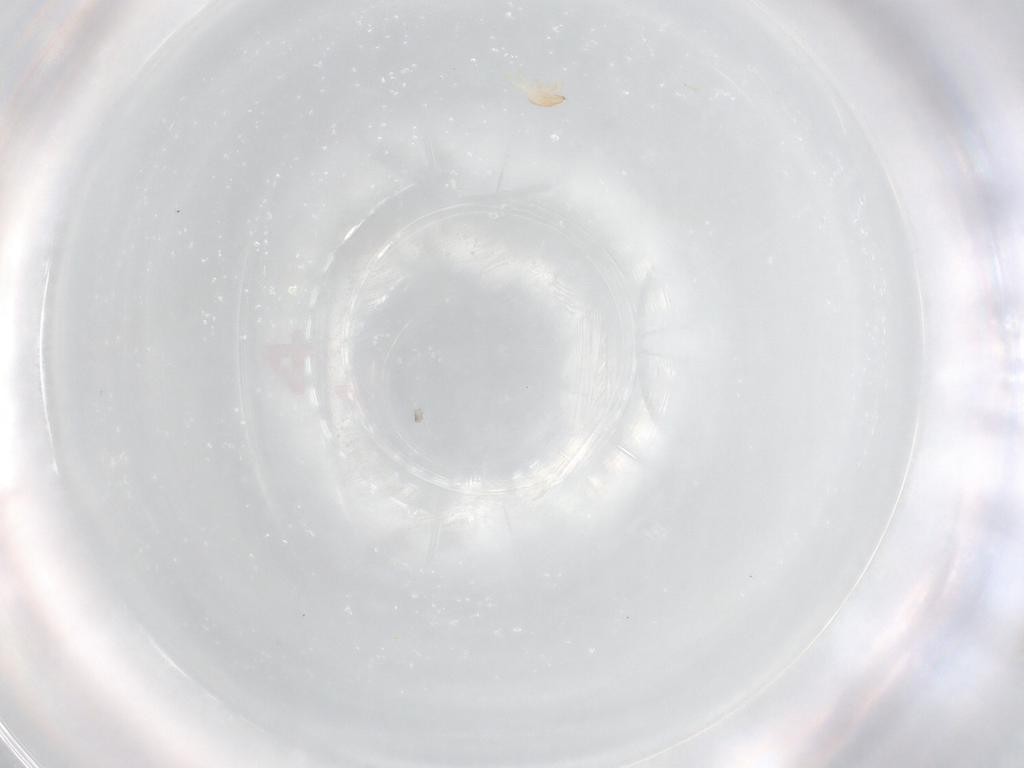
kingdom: Animalia
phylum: Arthropoda
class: Arachnida
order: Mesostigmata
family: Zerconidae
